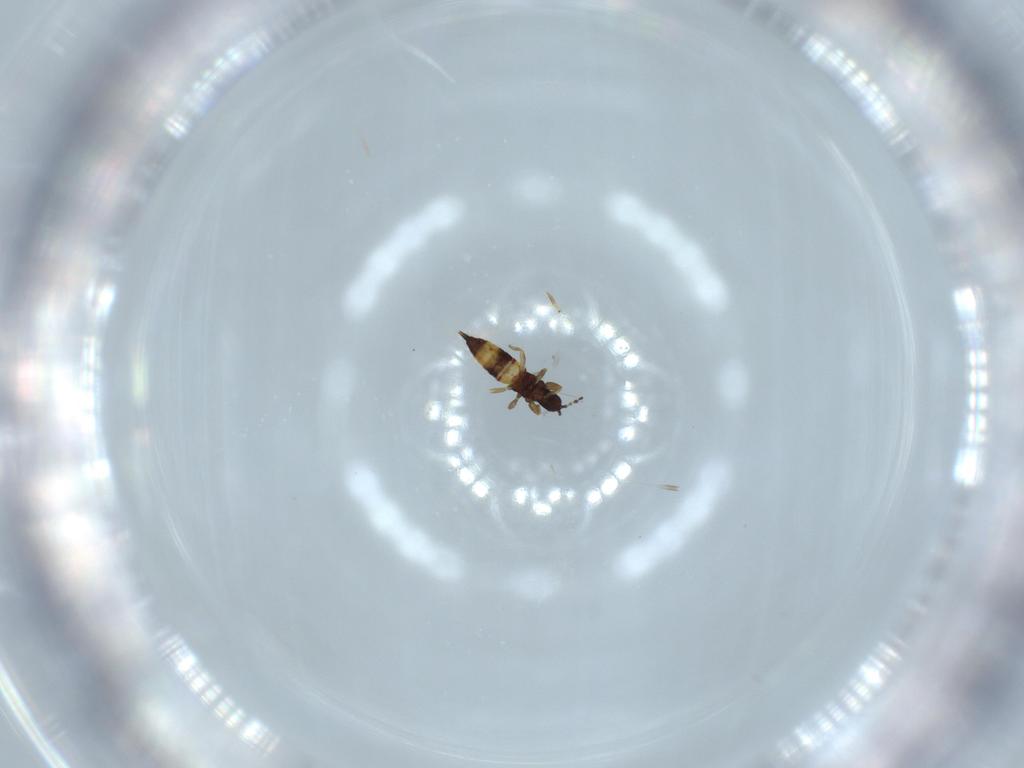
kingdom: Animalia
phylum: Arthropoda
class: Insecta
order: Thysanoptera
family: Phlaeothripidae
